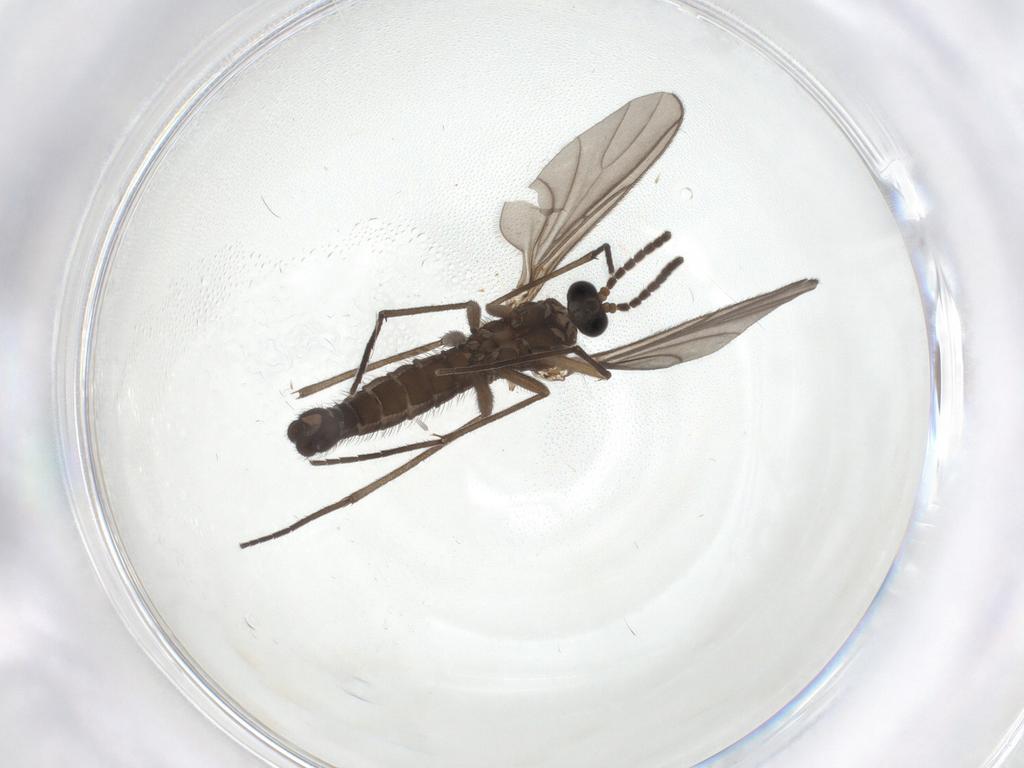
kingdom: Animalia
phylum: Arthropoda
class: Insecta
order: Diptera
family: Sciaridae
